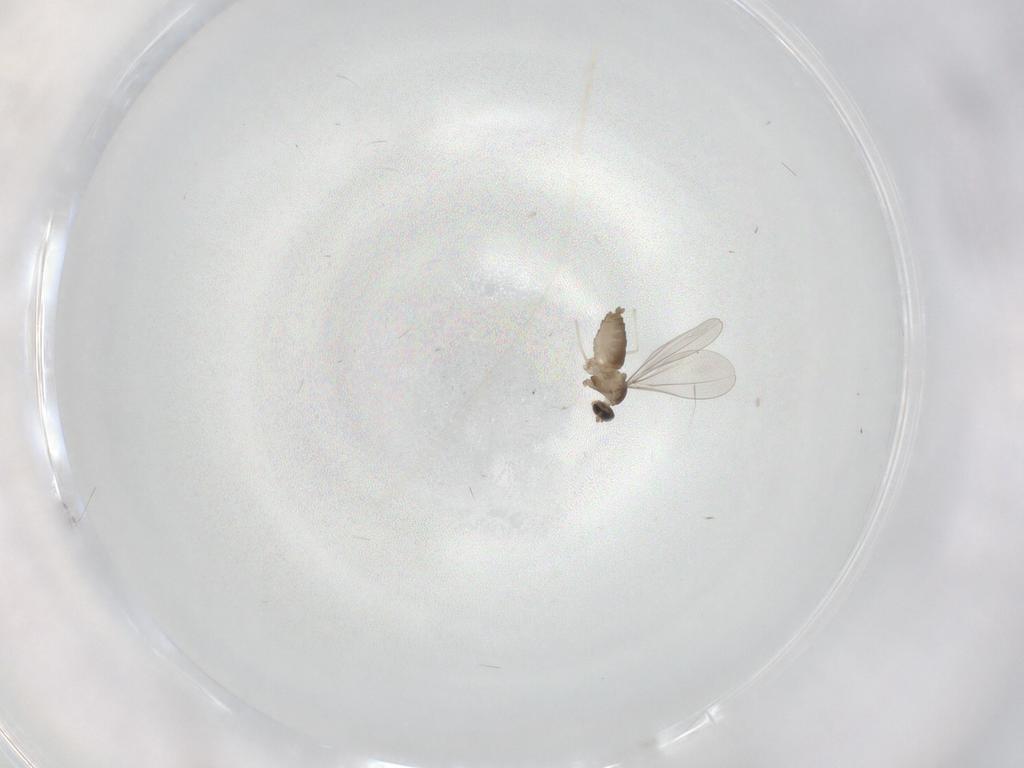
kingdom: Animalia
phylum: Arthropoda
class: Insecta
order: Diptera
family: Cecidomyiidae
